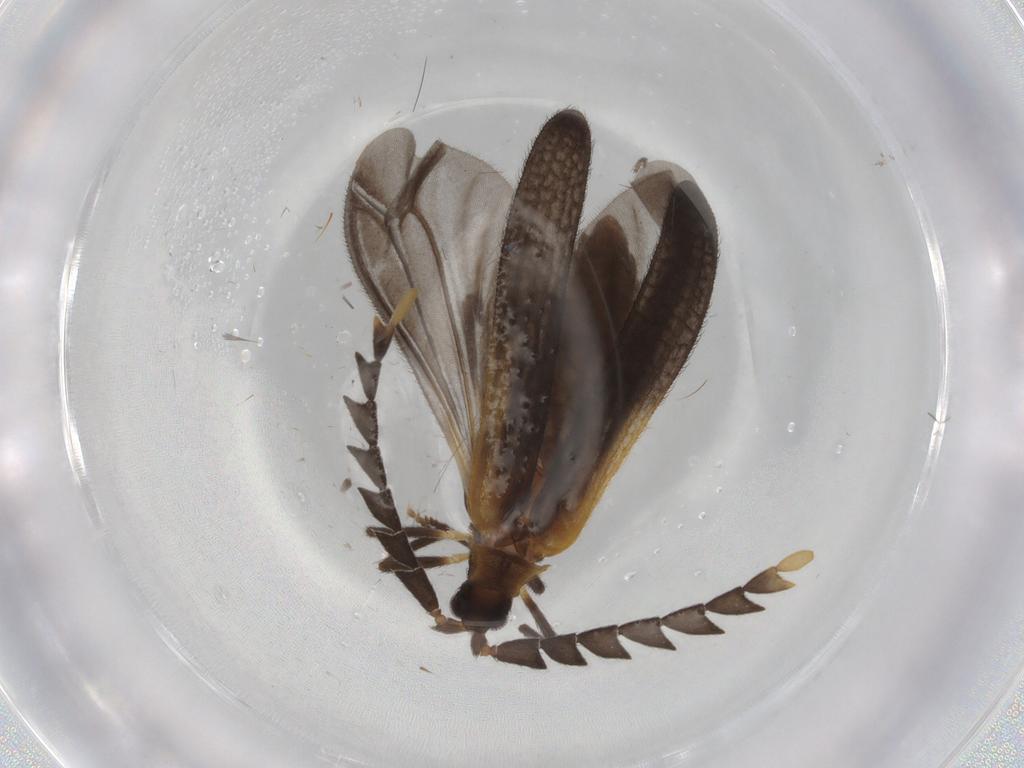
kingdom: Animalia
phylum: Arthropoda
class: Insecta
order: Coleoptera
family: Lycidae
